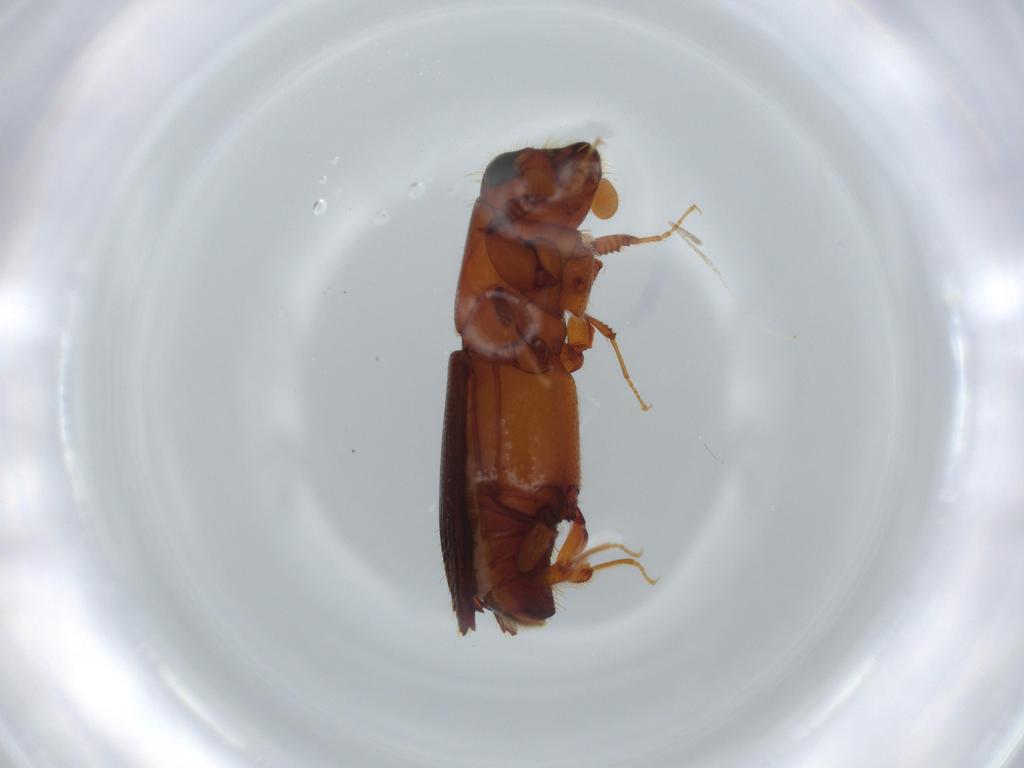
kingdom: Animalia
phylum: Arthropoda
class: Insecta
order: Coleoptera
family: Curculionidae
